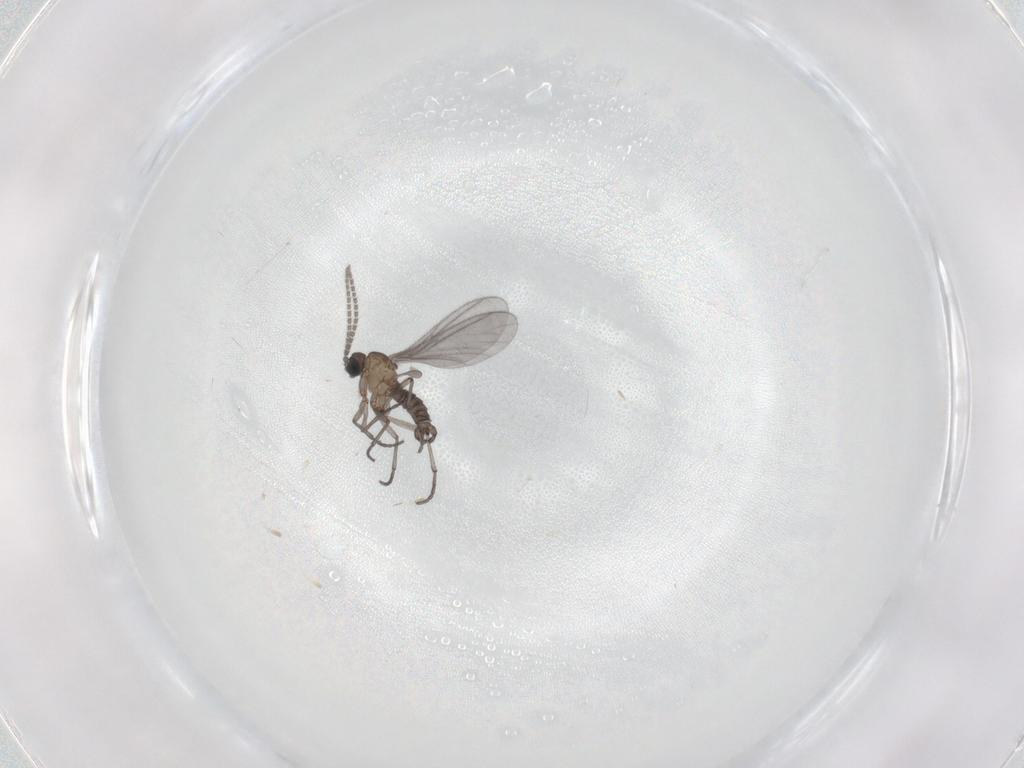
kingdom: Animalia
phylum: Arthropoda
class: Insecta
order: Diptera
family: Sciaridae
